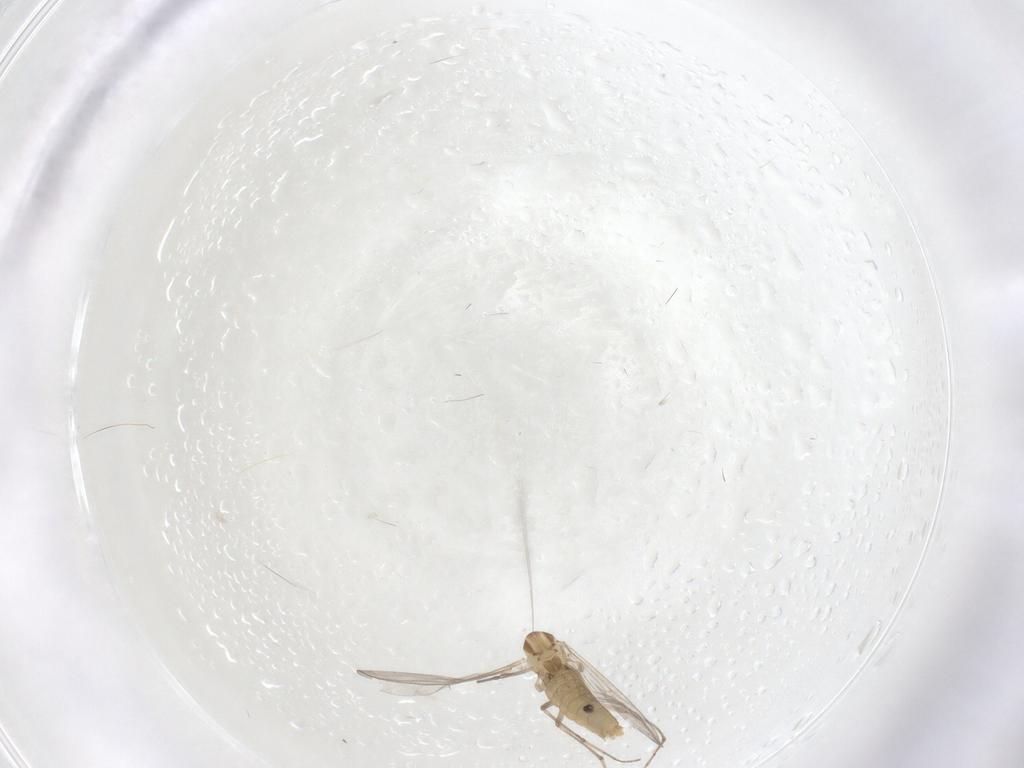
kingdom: Animalia
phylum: Arthropoda
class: Insecta
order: Diptera
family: Chironomidae
